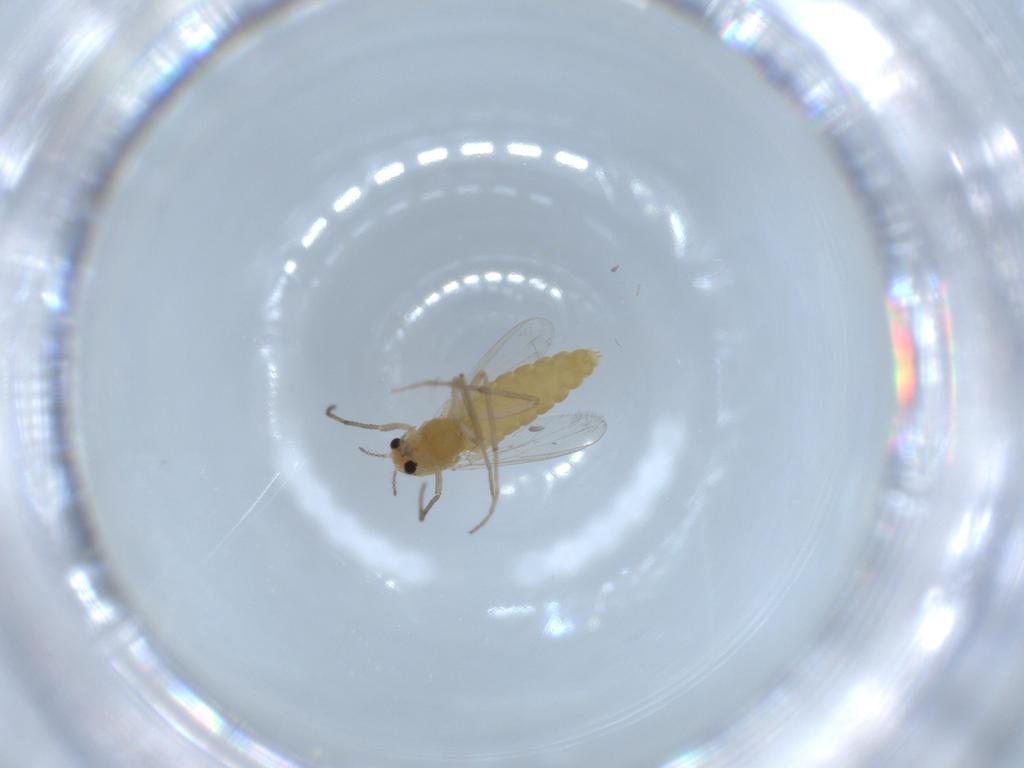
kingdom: Animalia
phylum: Arthropoda
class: Insecta
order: Diptera
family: Chironomidae
